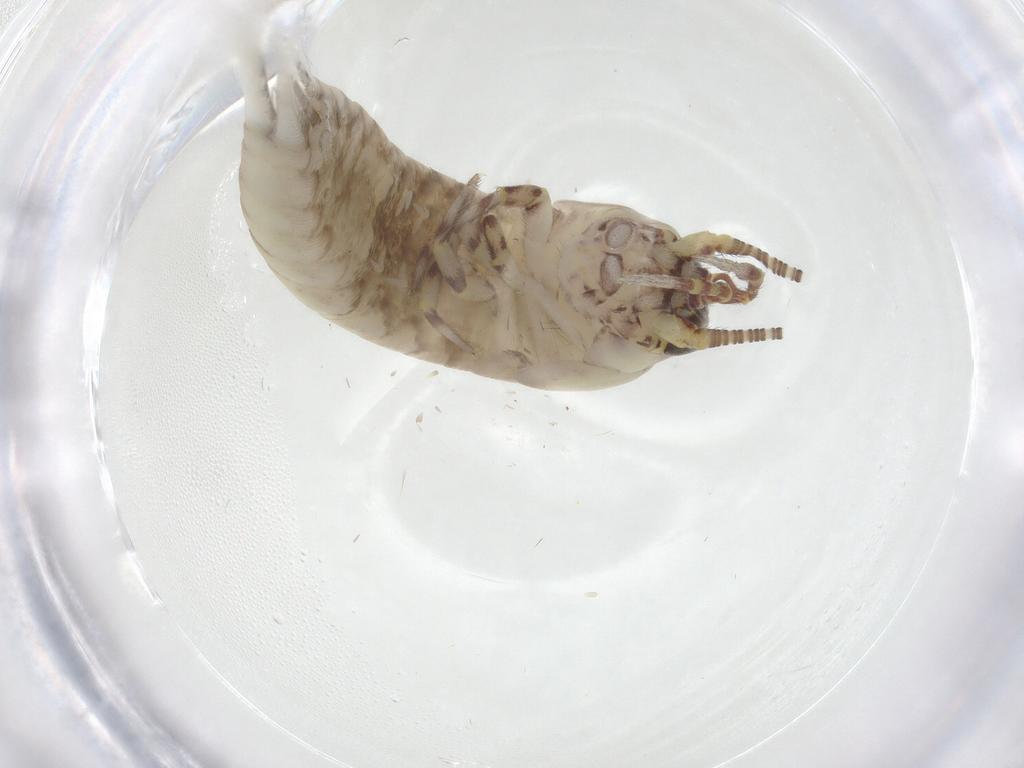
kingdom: Animalia
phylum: Arthropoda
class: Insecta
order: Archaeognatha
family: Meinertellidae
